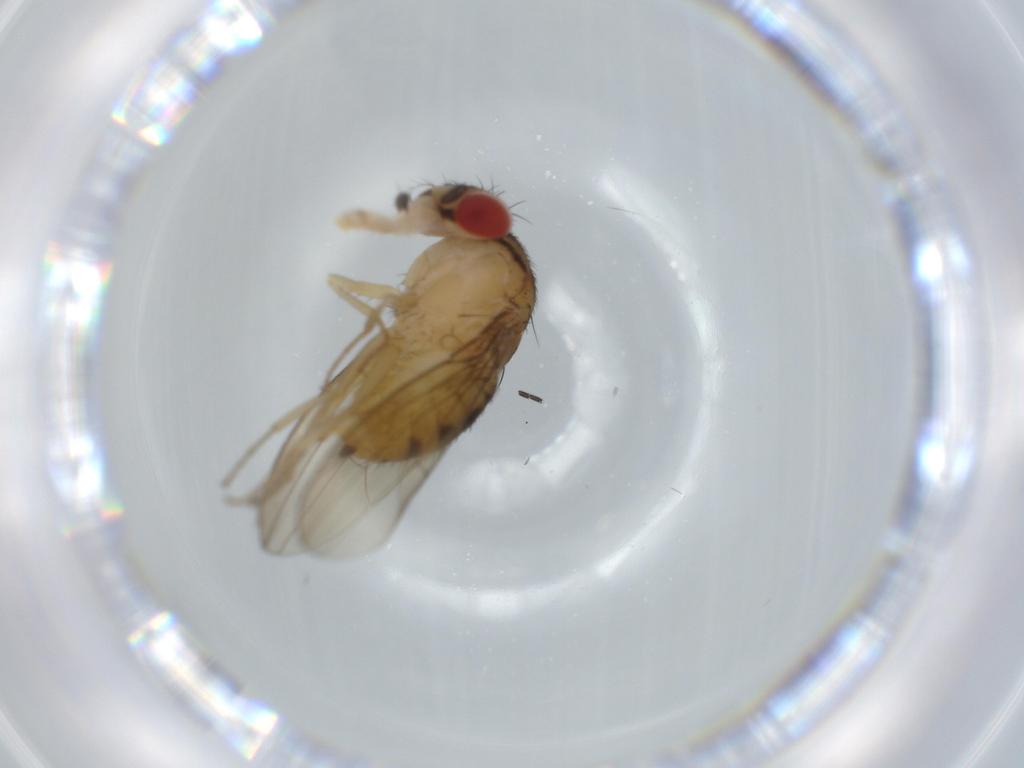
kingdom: Animalia
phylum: Arthropoda
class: Insecta
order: Diptera
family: Drosophilidae
